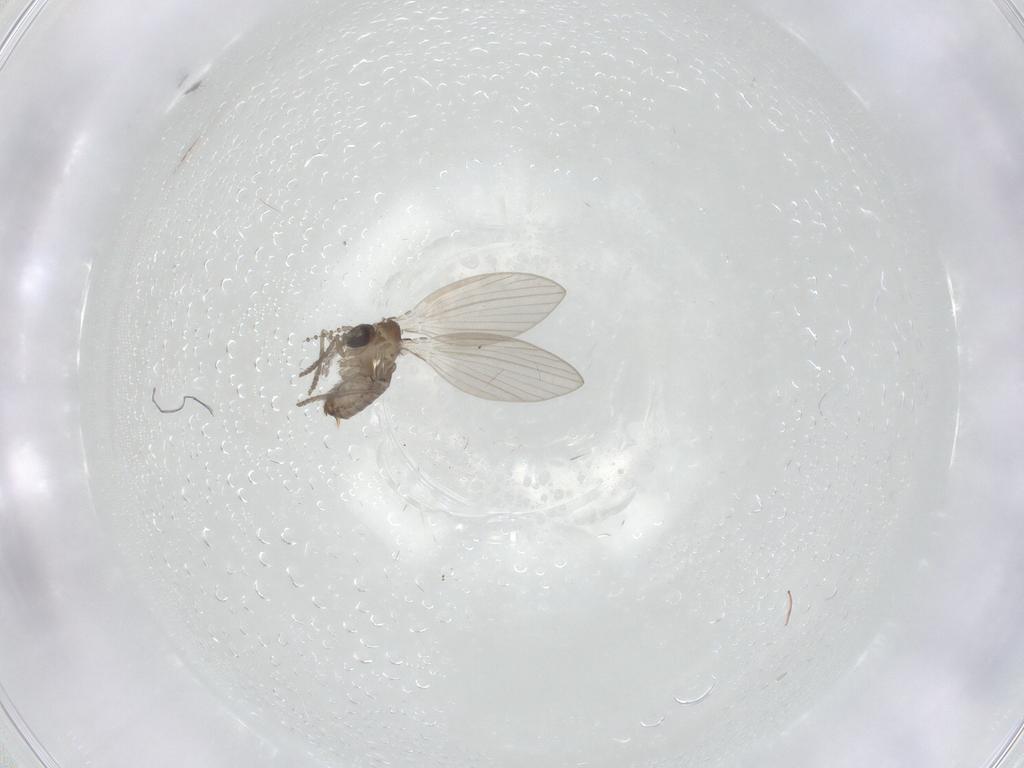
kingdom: Animalia
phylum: Arthropoda
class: Insecta
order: Diptera
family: Psychodidae
